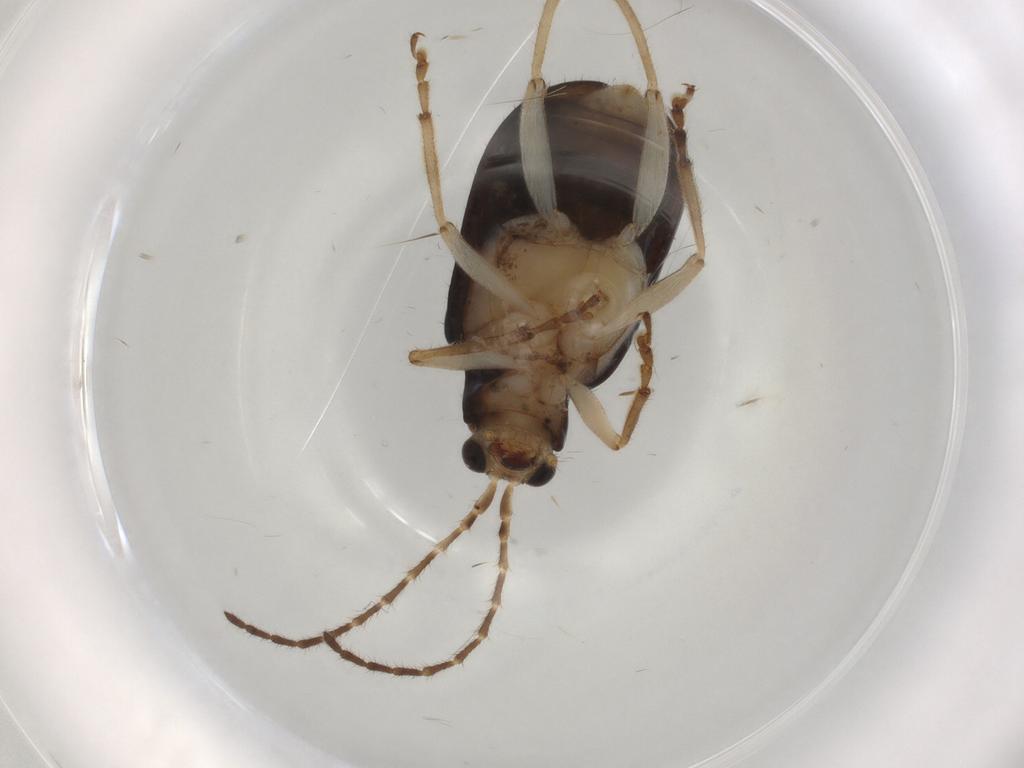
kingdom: Animalia
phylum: Arthropoda
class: Insecta
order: Coleoptera
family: Chrysomelidae
